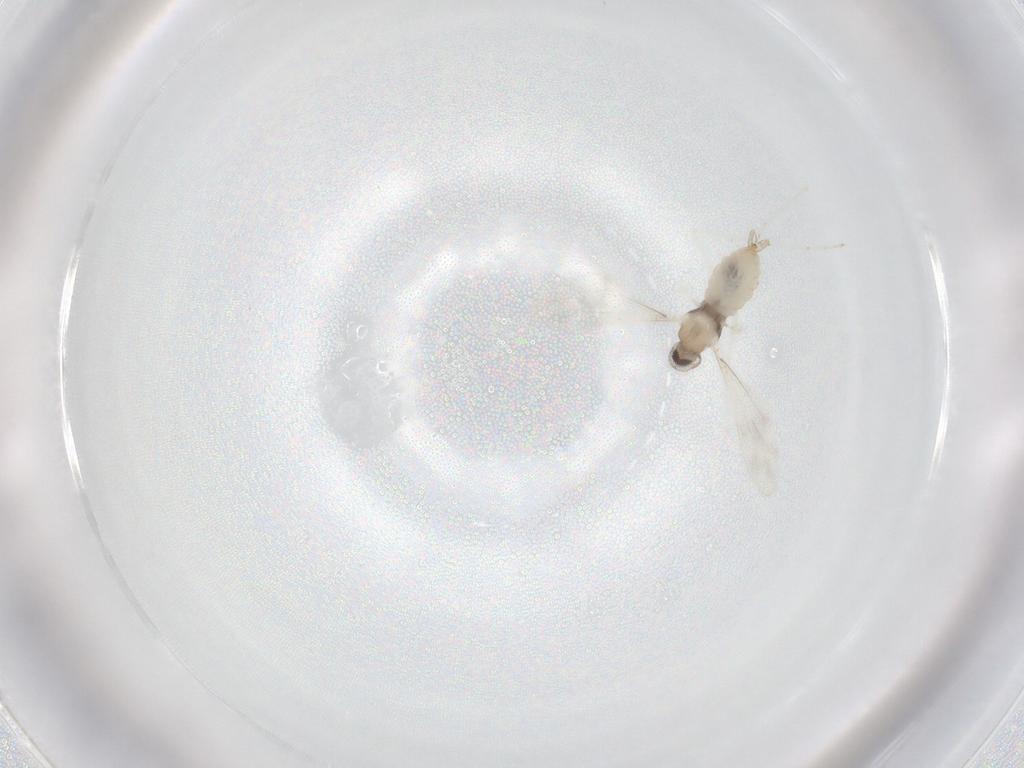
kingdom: Animalia
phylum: Arthropoda
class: Insecta
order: Diptera
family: Cecidomyiidae
